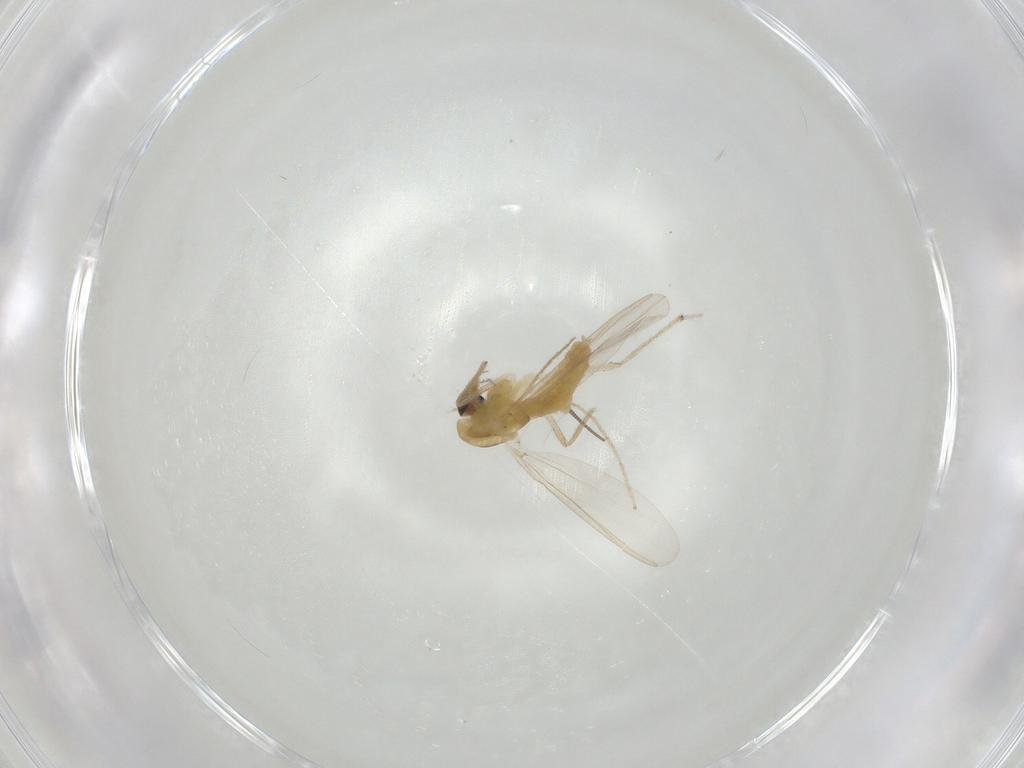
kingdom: Animalia
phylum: Arthropoda
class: Insecta
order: Diptera
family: Chironomidae
